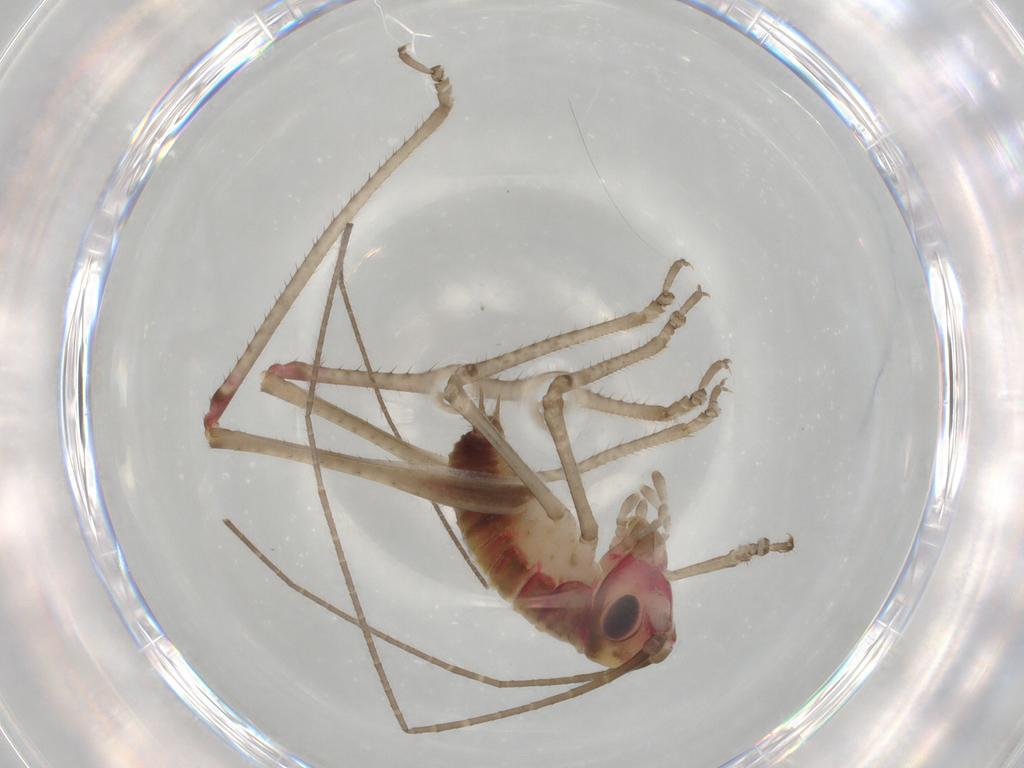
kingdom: Animalia
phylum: Arthropoda
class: Insecta
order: Orthoptera
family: Tettigoniidae
